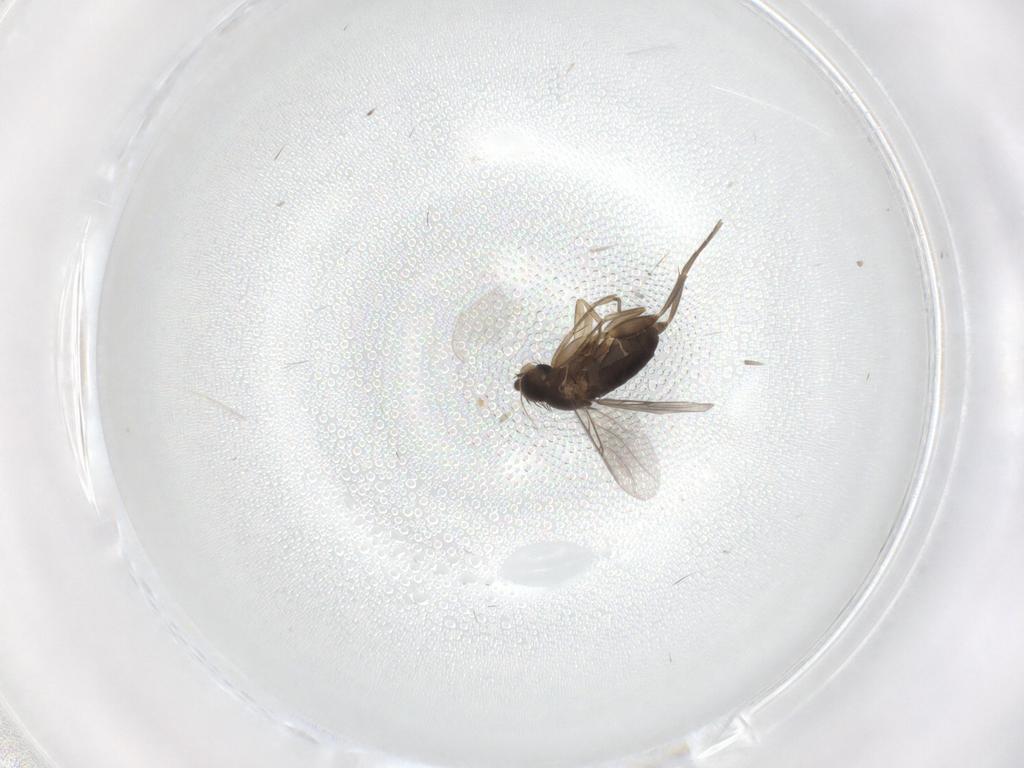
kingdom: Animalia
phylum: Arthropoda
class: Insecta
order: Diptera
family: Phoridae
